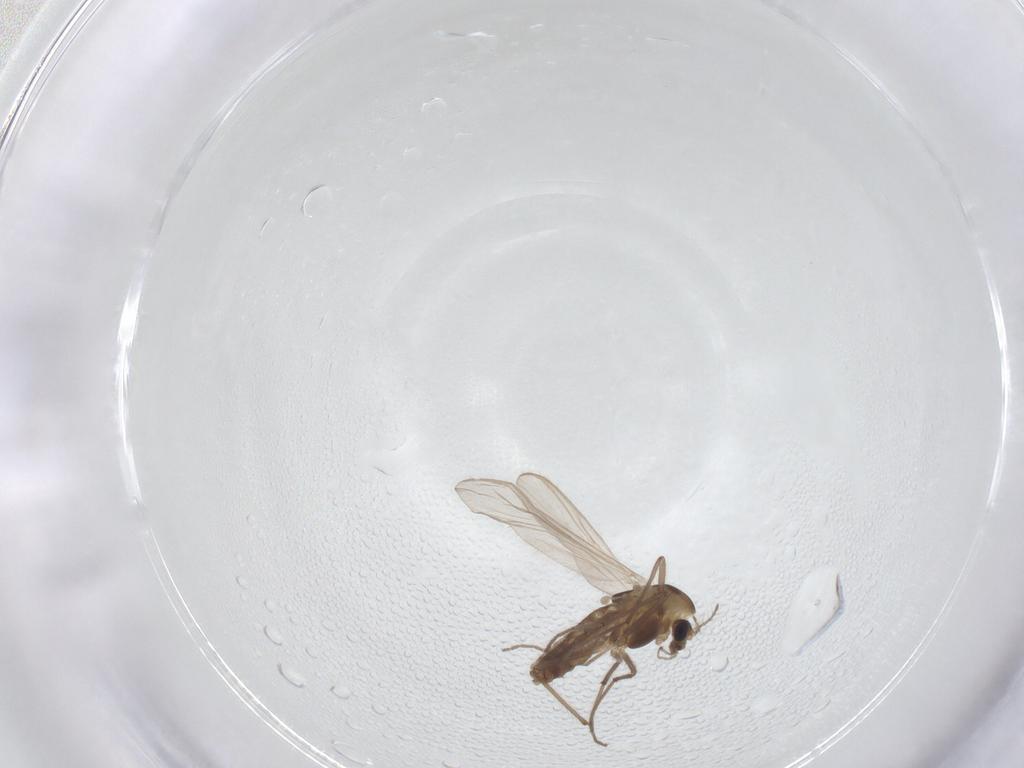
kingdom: Animalia
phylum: Arthropoda
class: Insecta
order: Diptera
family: Chironomidae
